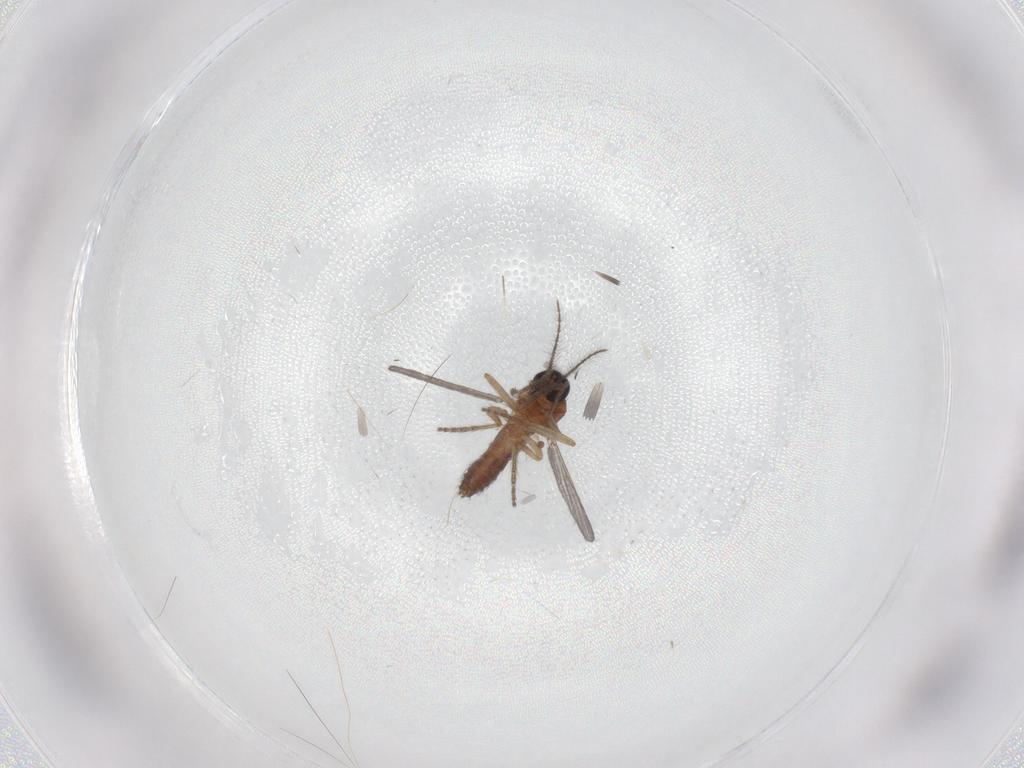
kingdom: Animalia
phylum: Arthropoda
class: Insecta
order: Diptera
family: Ceratopogonidae
